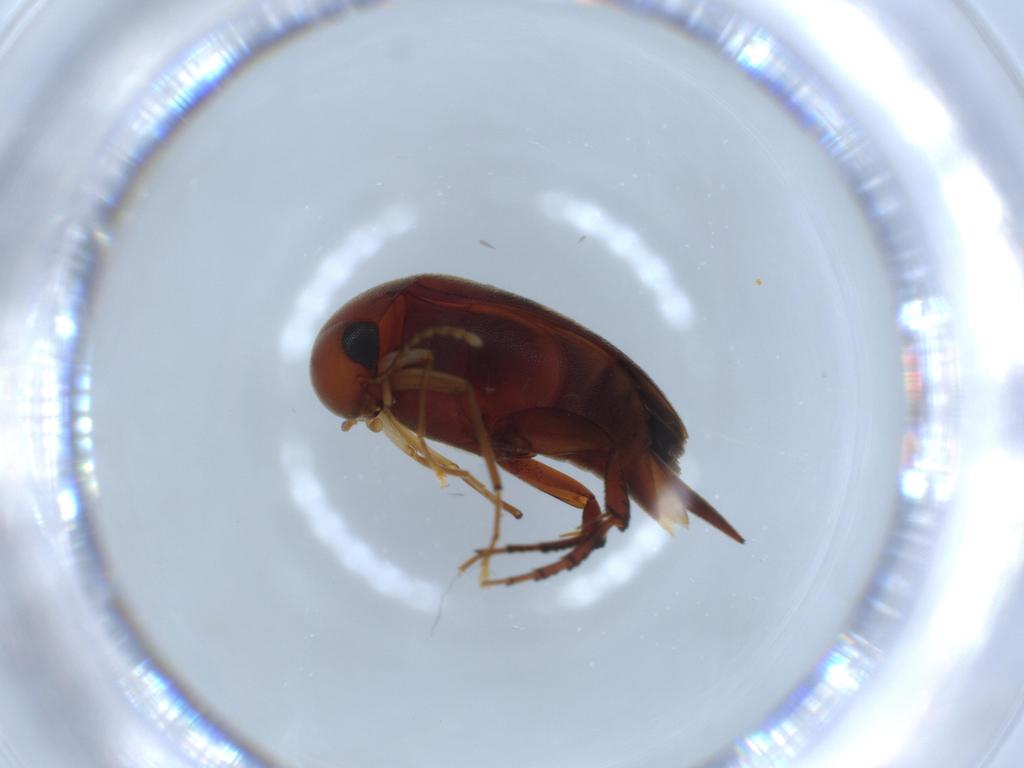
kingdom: Animalia
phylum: Arthropoda
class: Insecta
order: Coleoptera
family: Mordellidae
